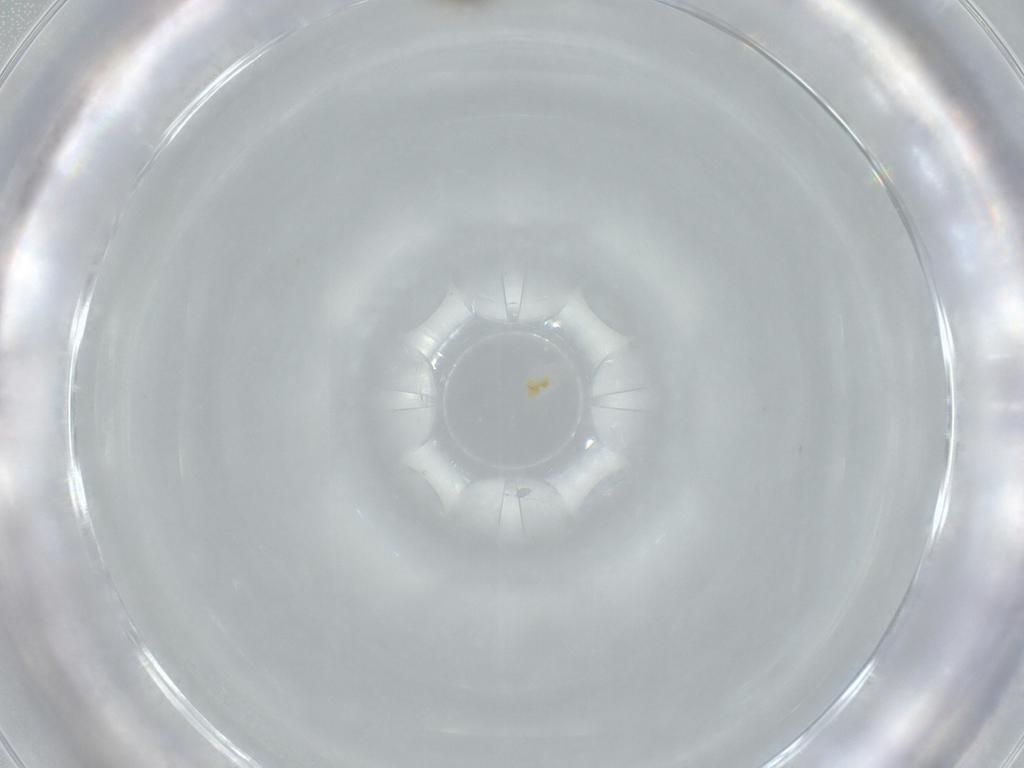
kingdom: Animalia
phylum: Arthropoda
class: Insecta
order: Diptera
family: Sciaridae
